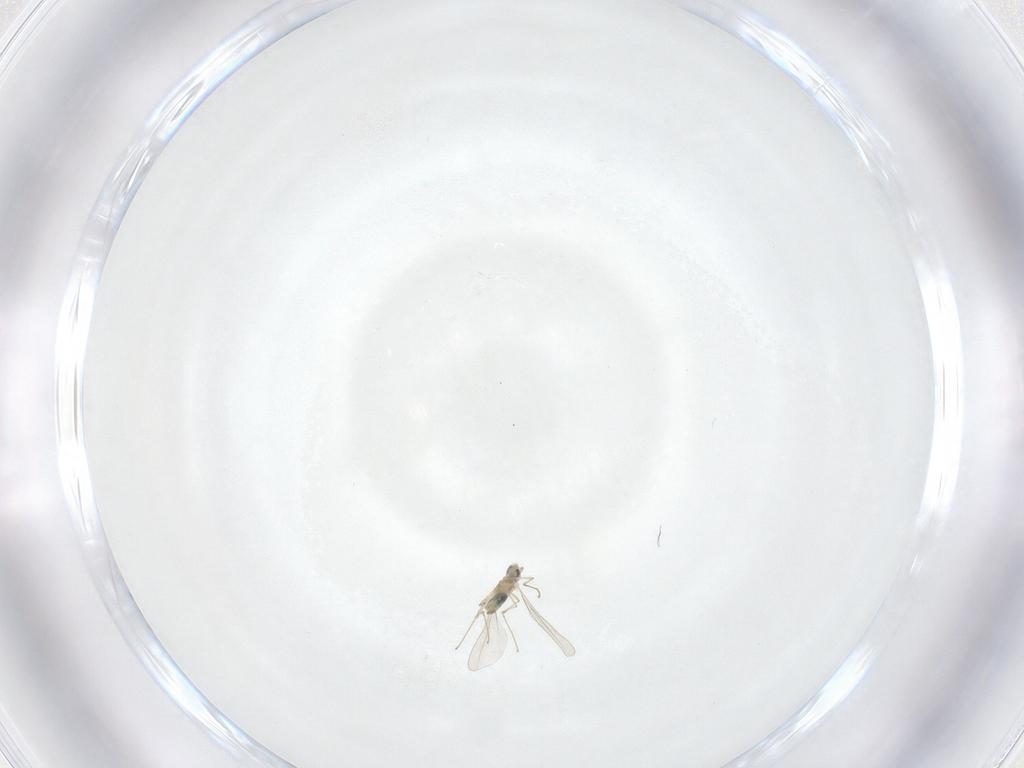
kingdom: Animalia
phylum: Arthropoda
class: Insecta
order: Diptera
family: Cecidomyiidae
